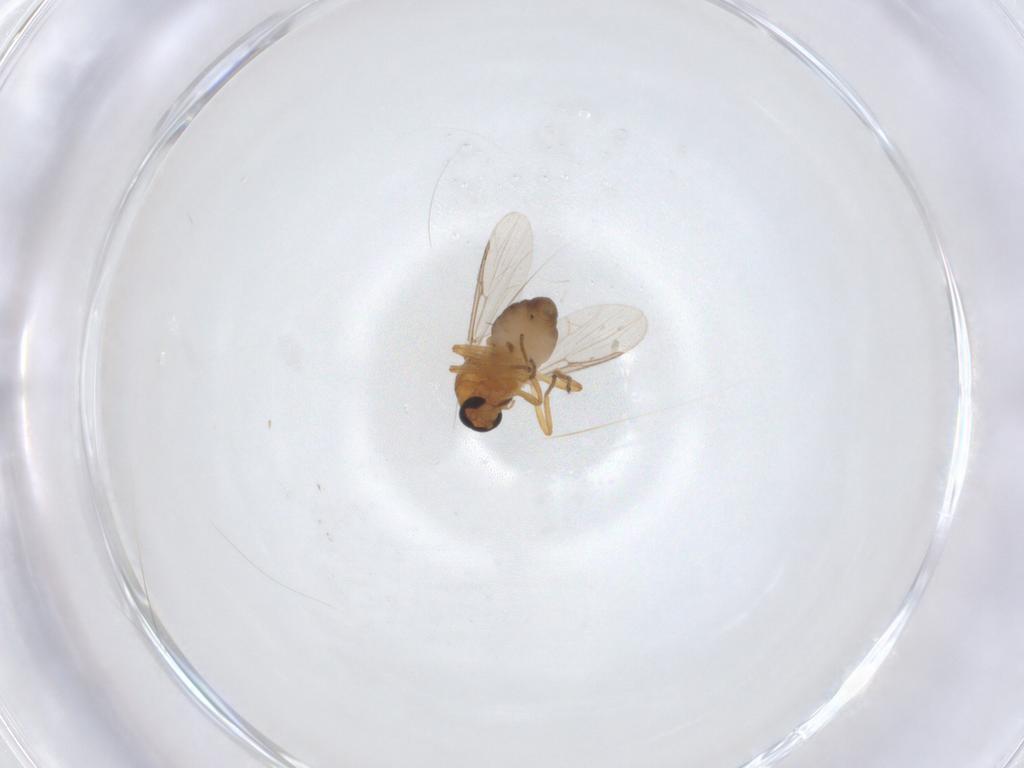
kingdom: Animalia
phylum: Arthropoda
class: Insecta
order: Diptera
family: Ceratopogonidae
